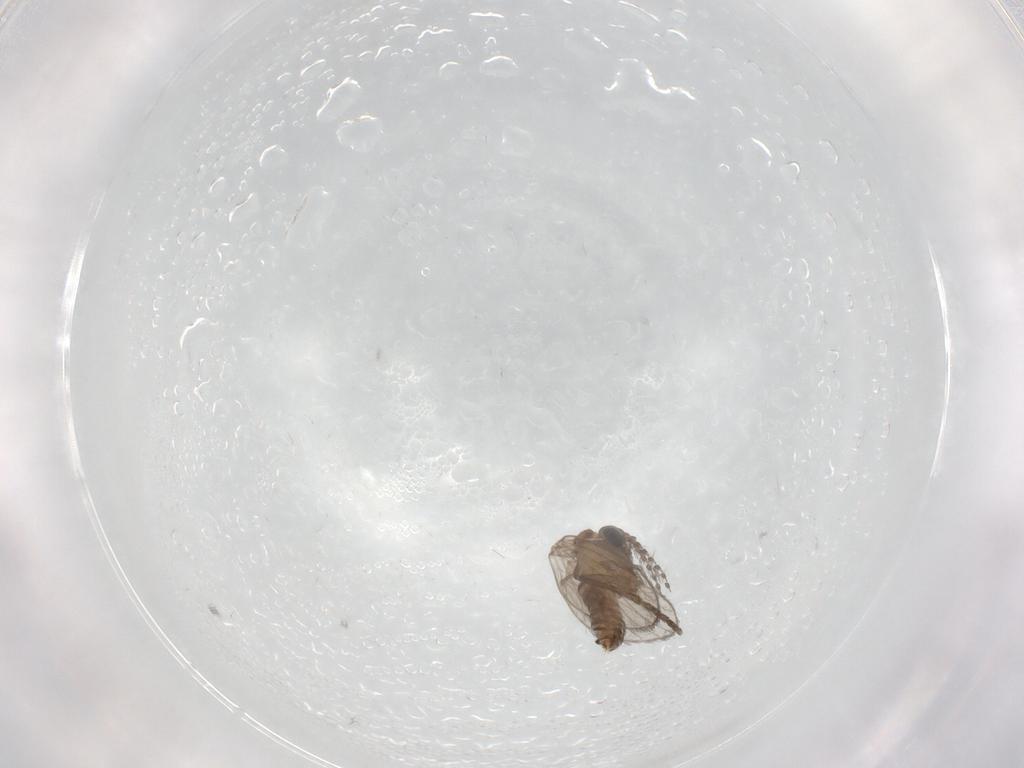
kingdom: Animalia
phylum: Arthropoda
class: Insecta
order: Diptera
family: Psychodidae
